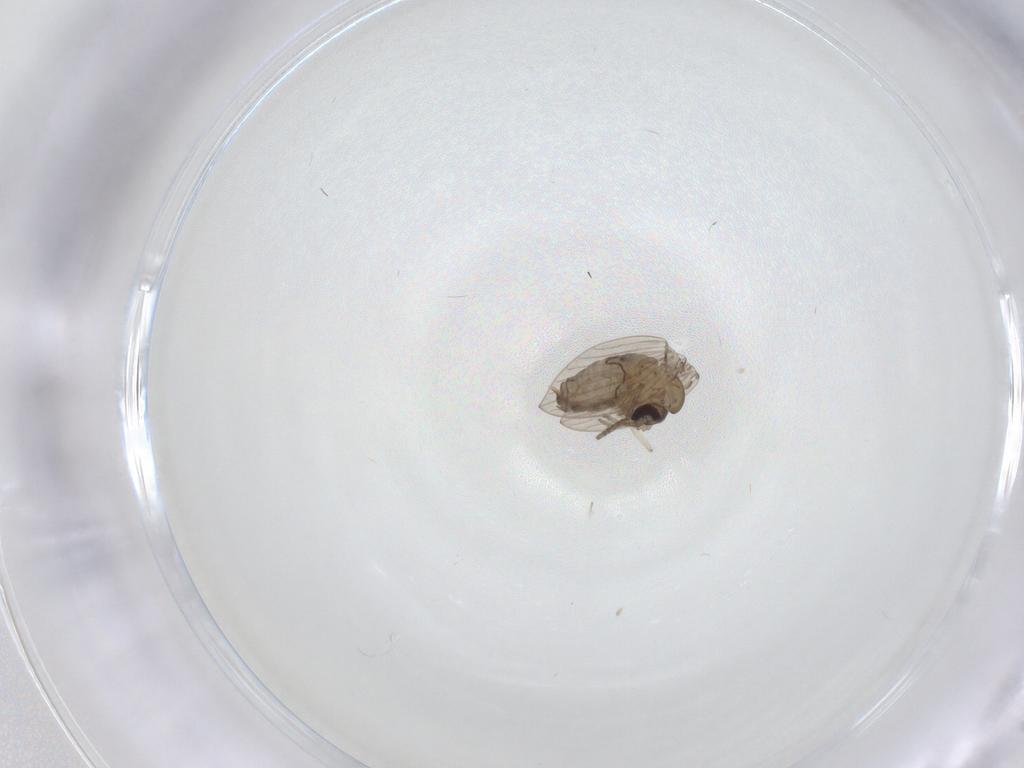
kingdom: Animalia
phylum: Arthropoda
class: Insecta
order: Diptera
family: Psychodidae
